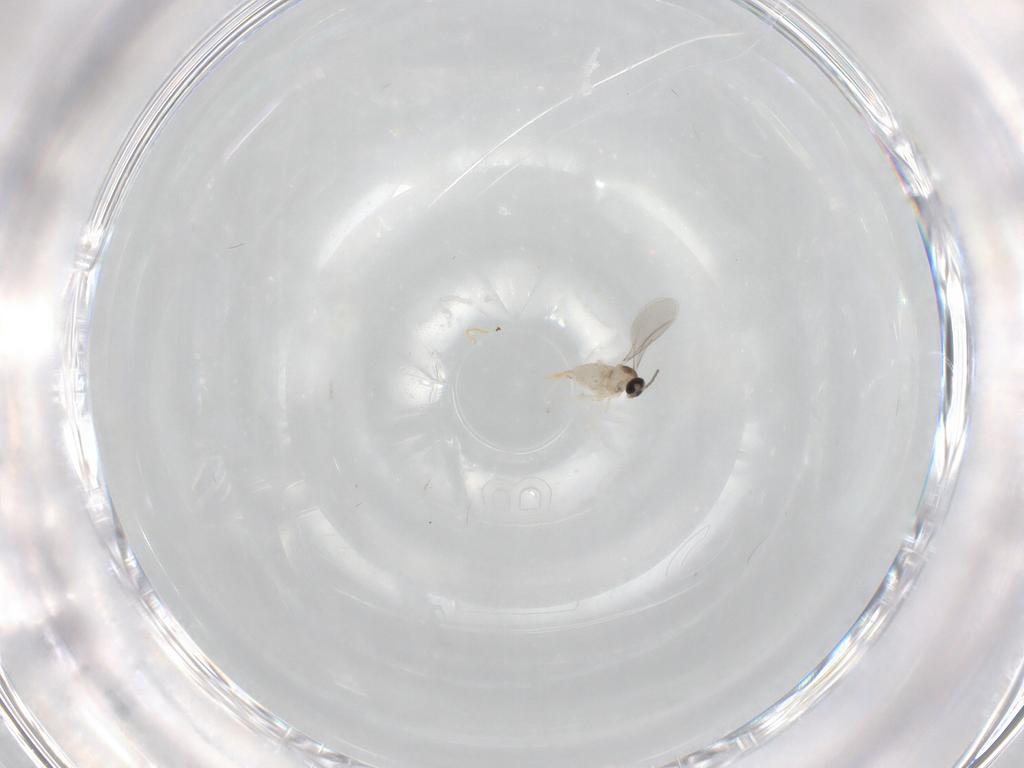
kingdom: Animalia
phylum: Arthropoda
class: Insecta
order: Diptera
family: Cecidomyiidae
